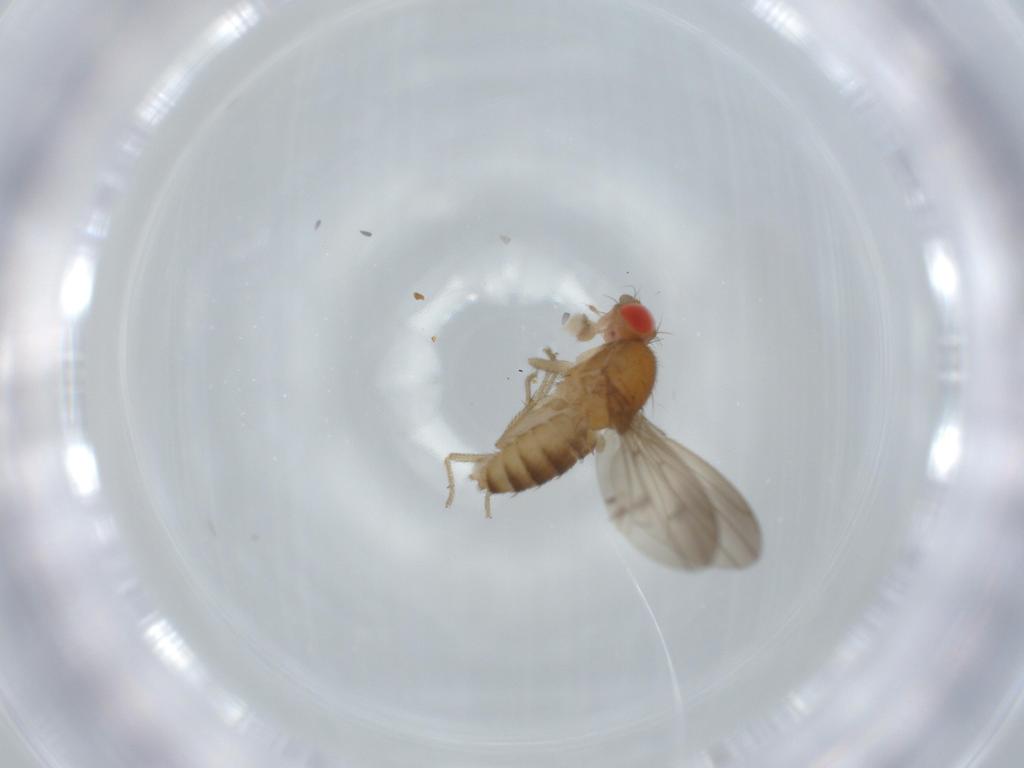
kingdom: Animalia
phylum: Arthropoda
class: Insecta
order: Diptera
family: Drosophilidae
